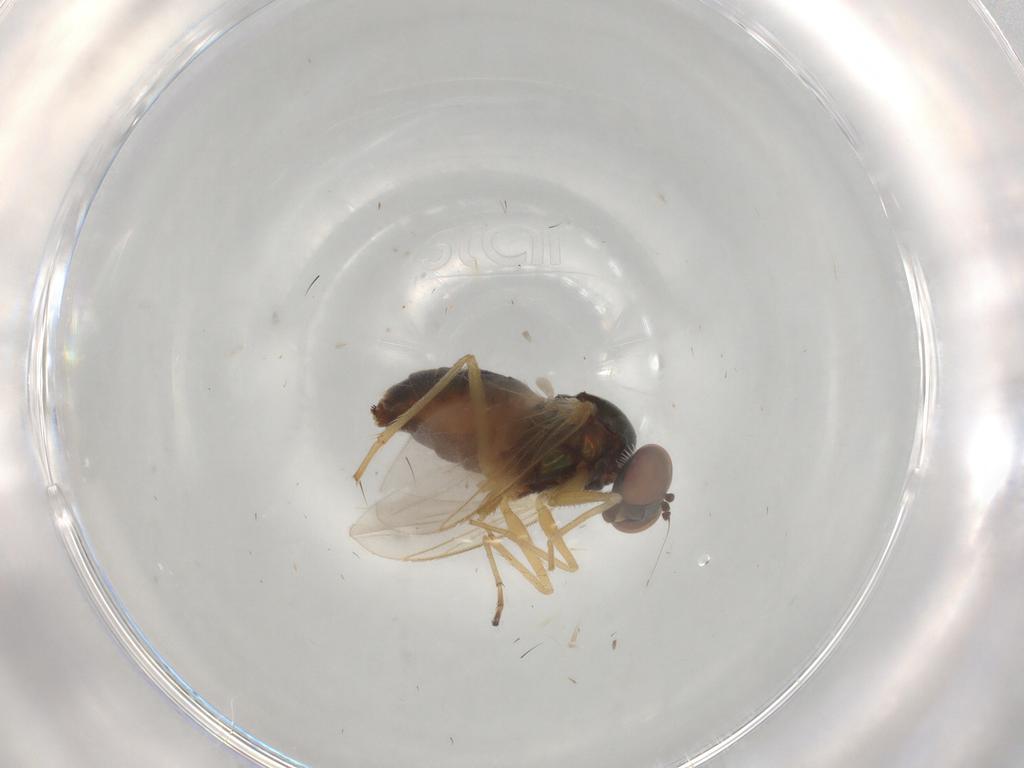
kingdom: Animalia
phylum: Arthropoda
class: Insecta
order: Diptera
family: Dolichopodidae
